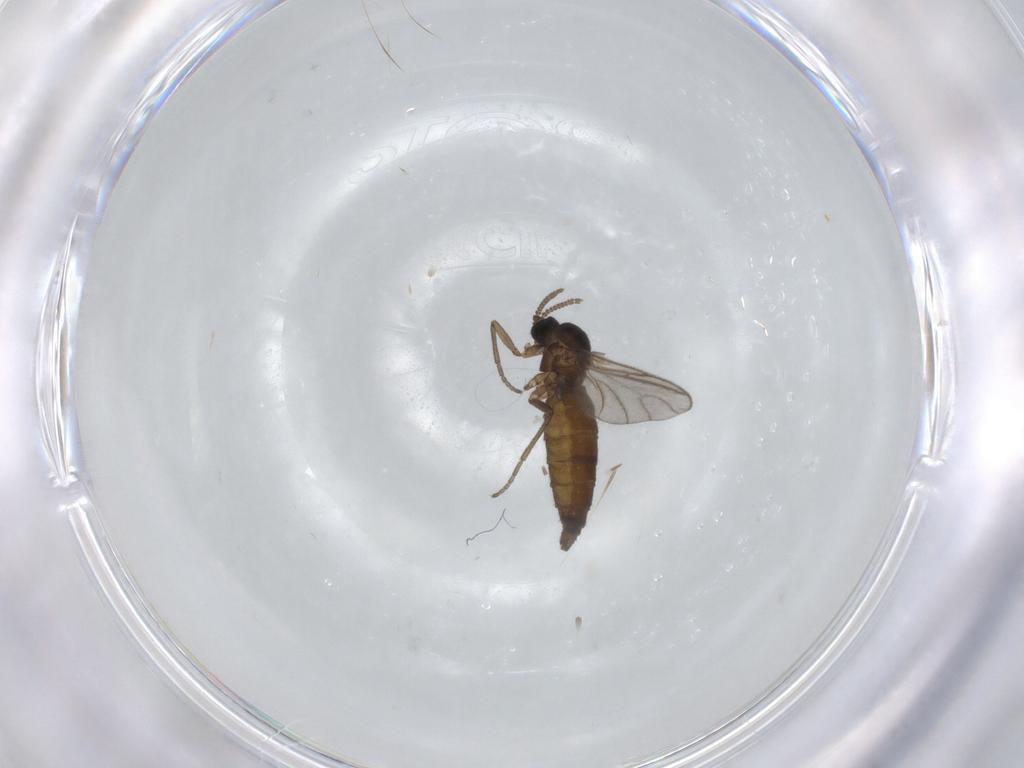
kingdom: Animalia
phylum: Arthropoda
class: Insecta
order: Diptera
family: Sciaridae
